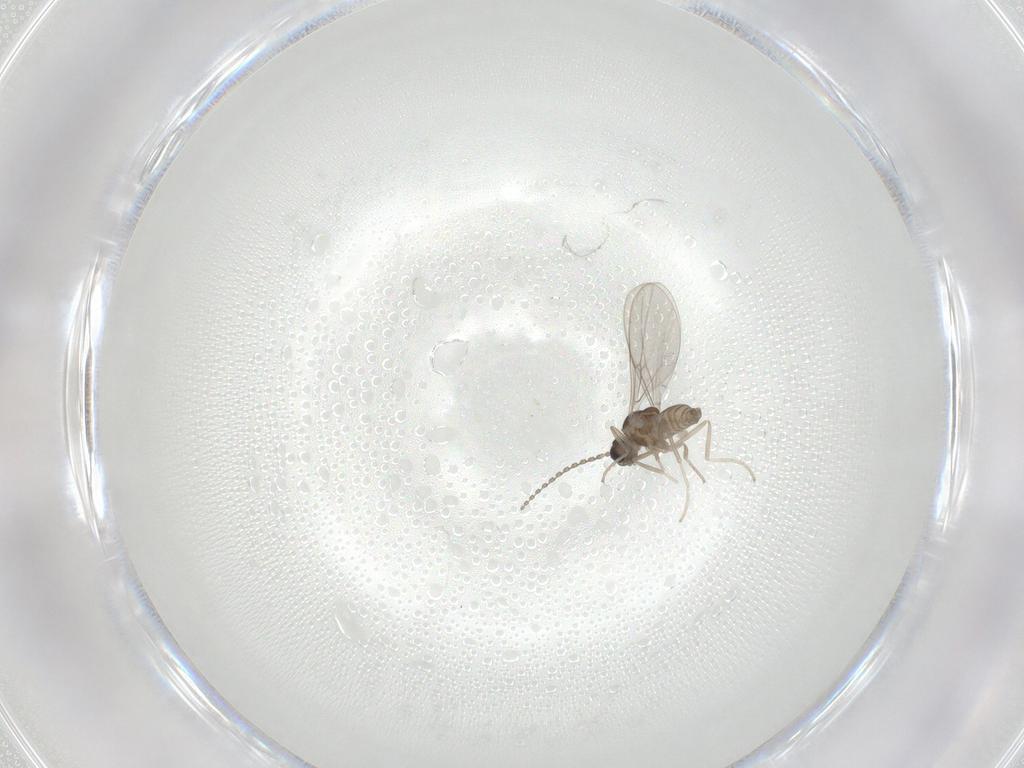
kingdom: Animalia
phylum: Arthropoda
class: Insecta
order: Diptera
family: Cecidomyiidae
